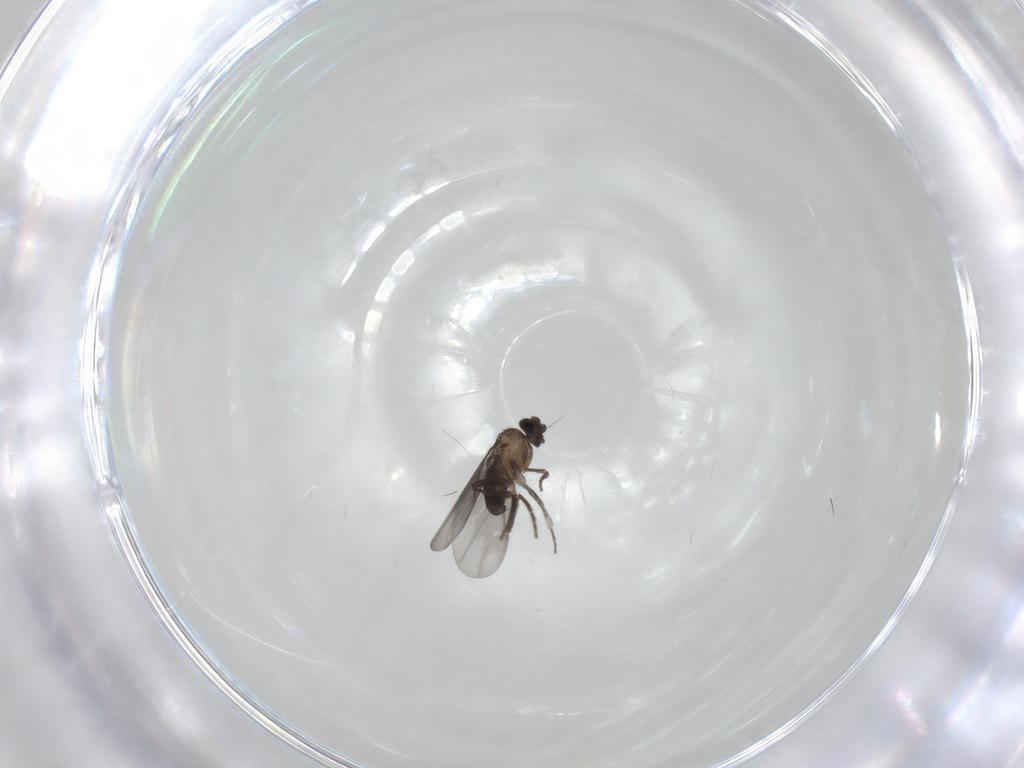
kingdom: Animalia
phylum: Arthropoda
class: Insecta
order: Diptera
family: Phoridae
